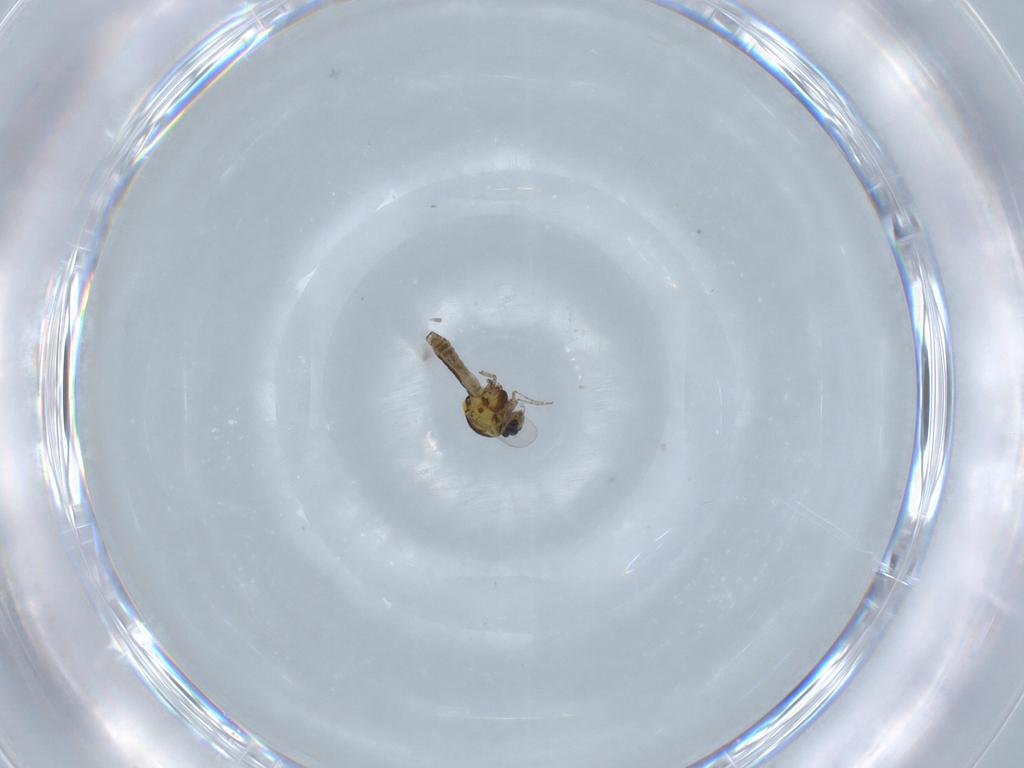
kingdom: Animalia
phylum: Arthropoda
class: Insecta
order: Diptera
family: Ceratopogonidae
